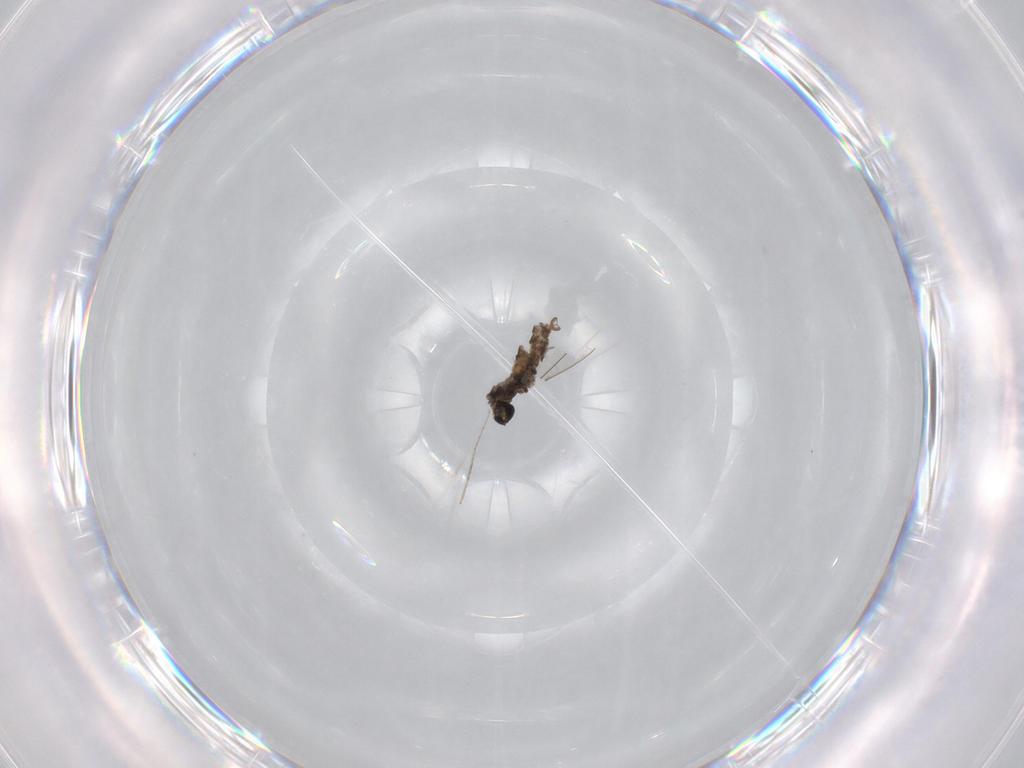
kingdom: Animalia
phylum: Arthropoda
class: Insecta
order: Diptera
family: Cecidomyiidae
